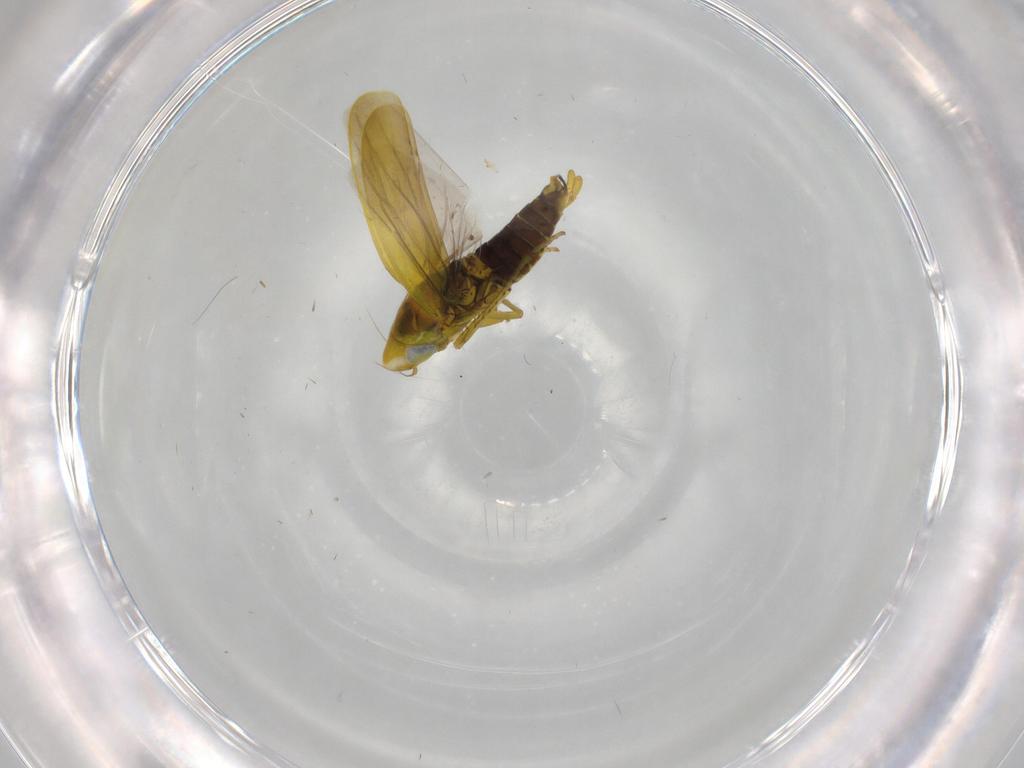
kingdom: Animalia
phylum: Arthropoda
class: Insecta
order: Hemiptera
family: Cicadellidae
